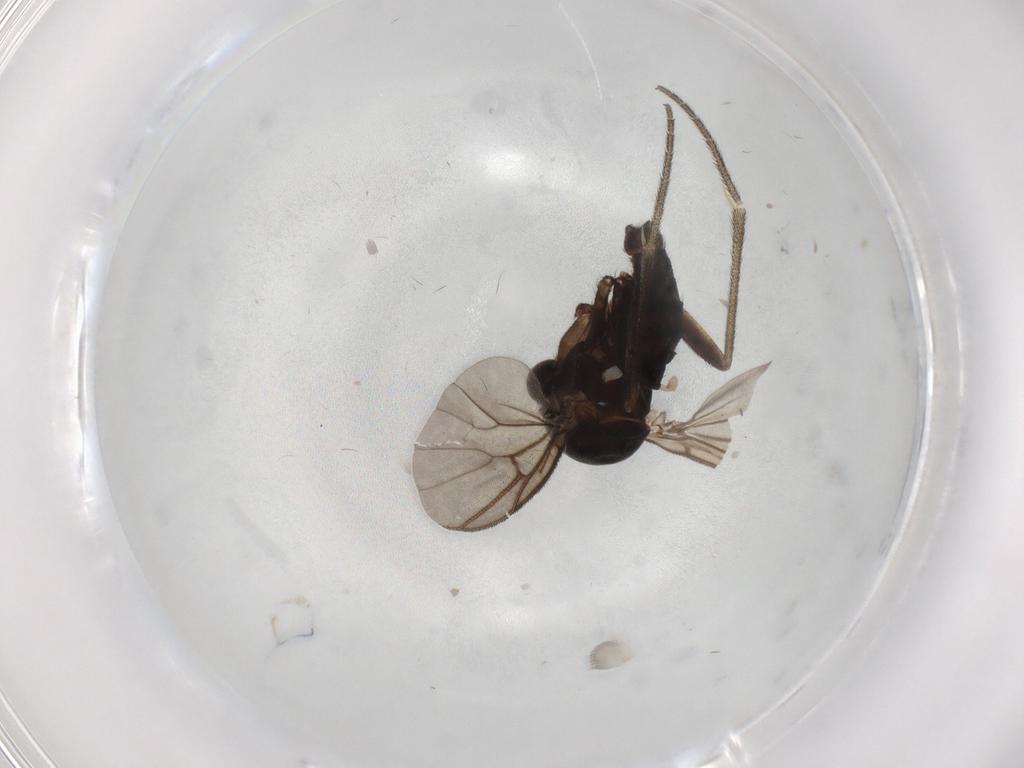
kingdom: Animalia
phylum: Arthropoda
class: Insecta
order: Diptera
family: Mycetophilidae
